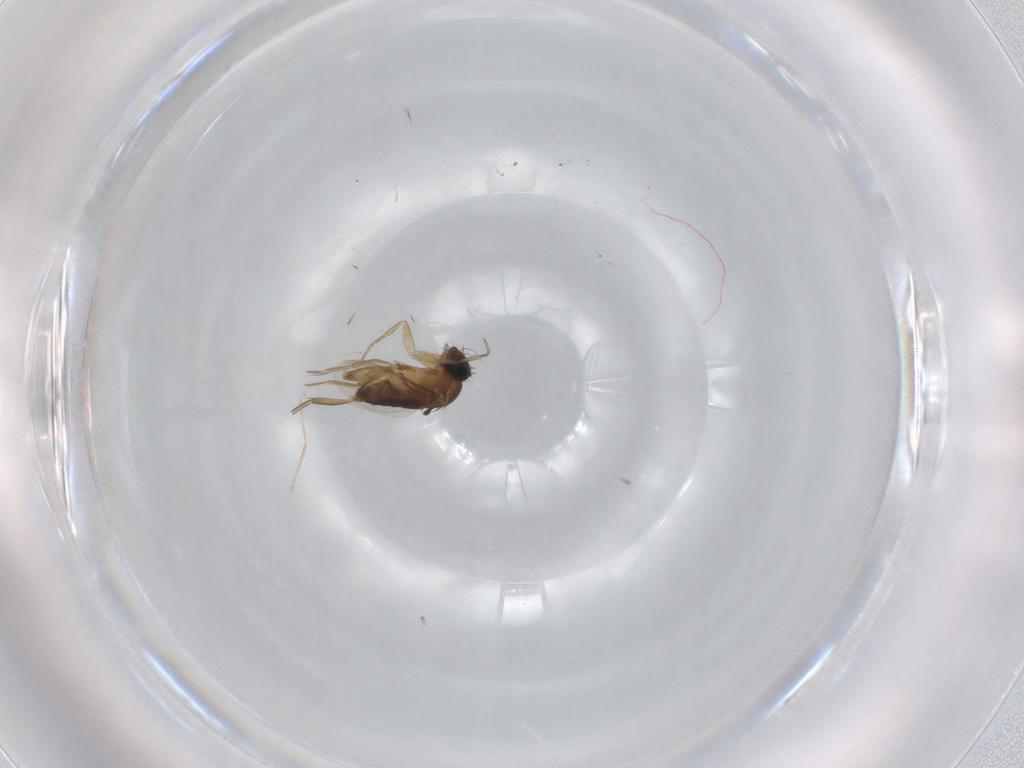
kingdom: Animalia
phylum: Arthropoda
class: Insecta
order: Diptera
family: Phoridae
